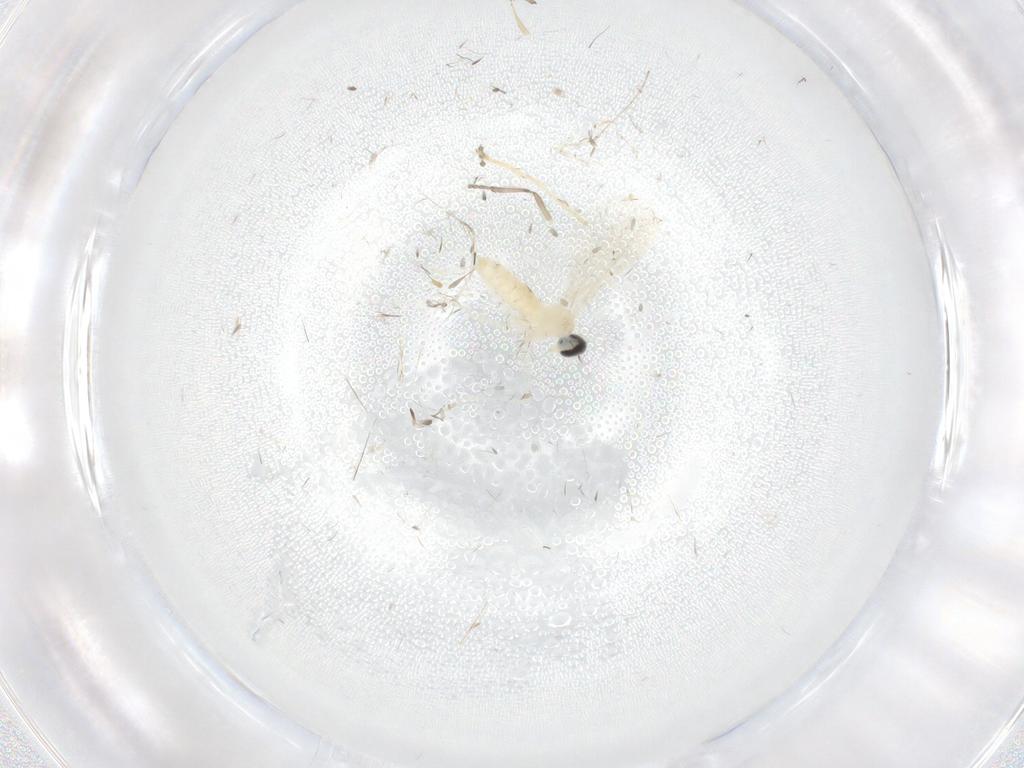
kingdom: Animalia
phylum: Arthropoda
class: Insecta
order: Diptera
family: Cecidomyiidae
